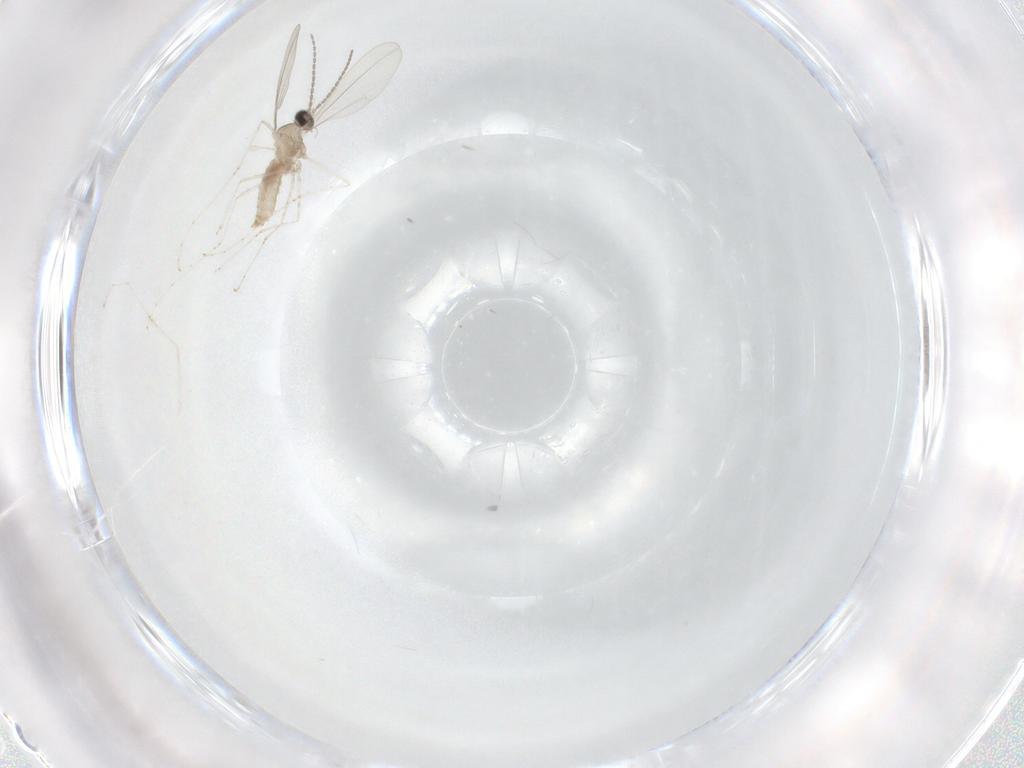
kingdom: Animalia
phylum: Arthropoda
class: Insecta
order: Diptera
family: Cecidomyiidae
